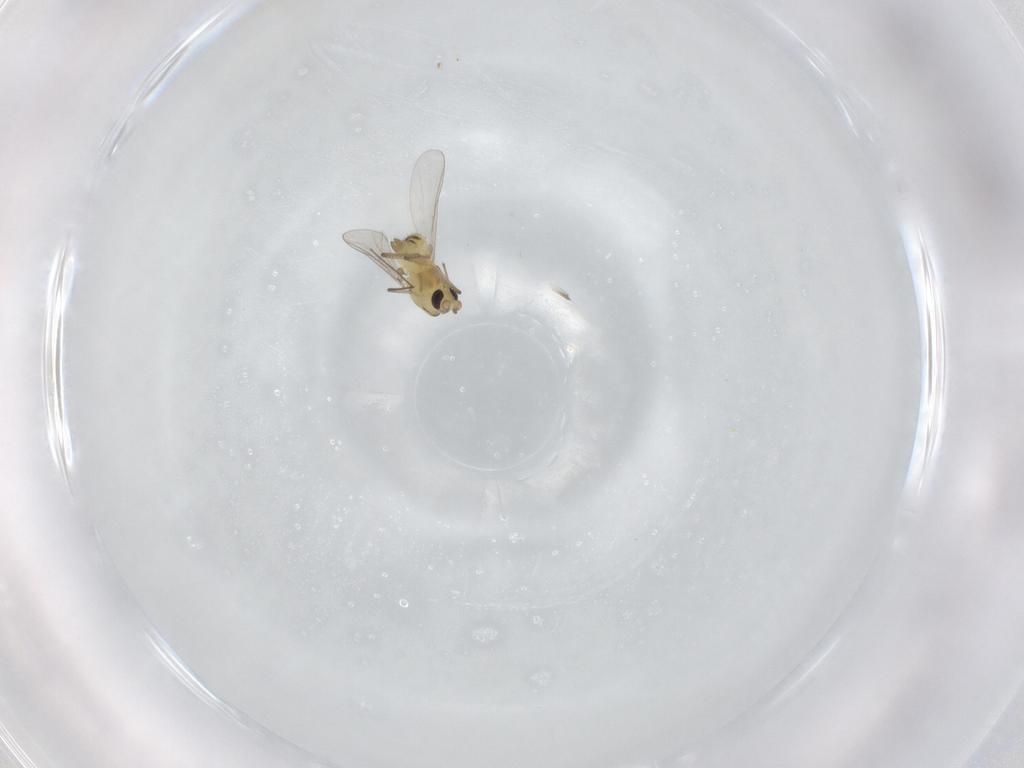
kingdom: Animalia
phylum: Arthropoda
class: Insecta
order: Diptera
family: Chironomidae
